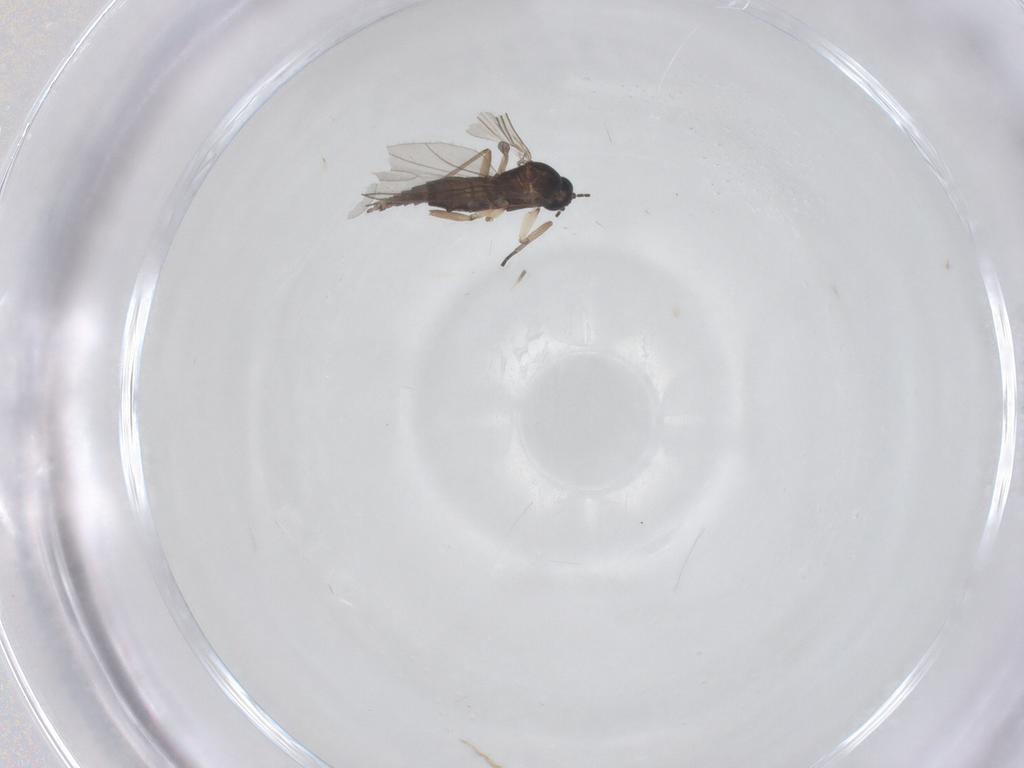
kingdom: Animalia
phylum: Arthropoda
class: Insecta
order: Diptera
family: Sciaridae
